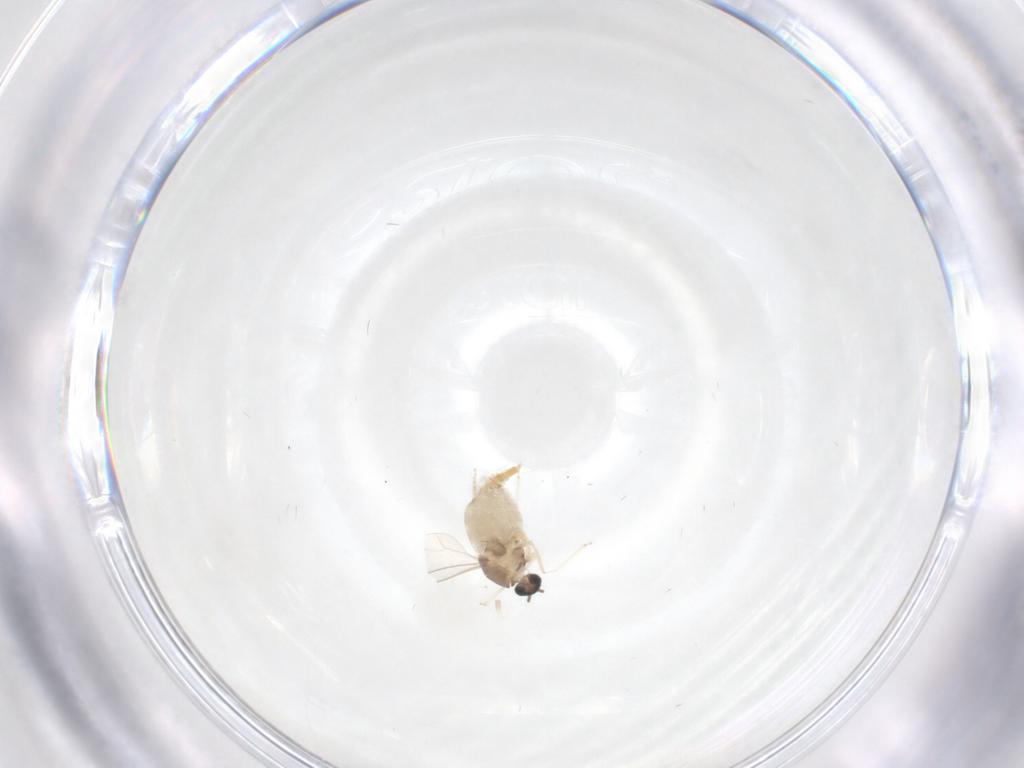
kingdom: Animalia
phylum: Arthropoda
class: Insecta
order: Diptera
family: Cecidomyiidae
